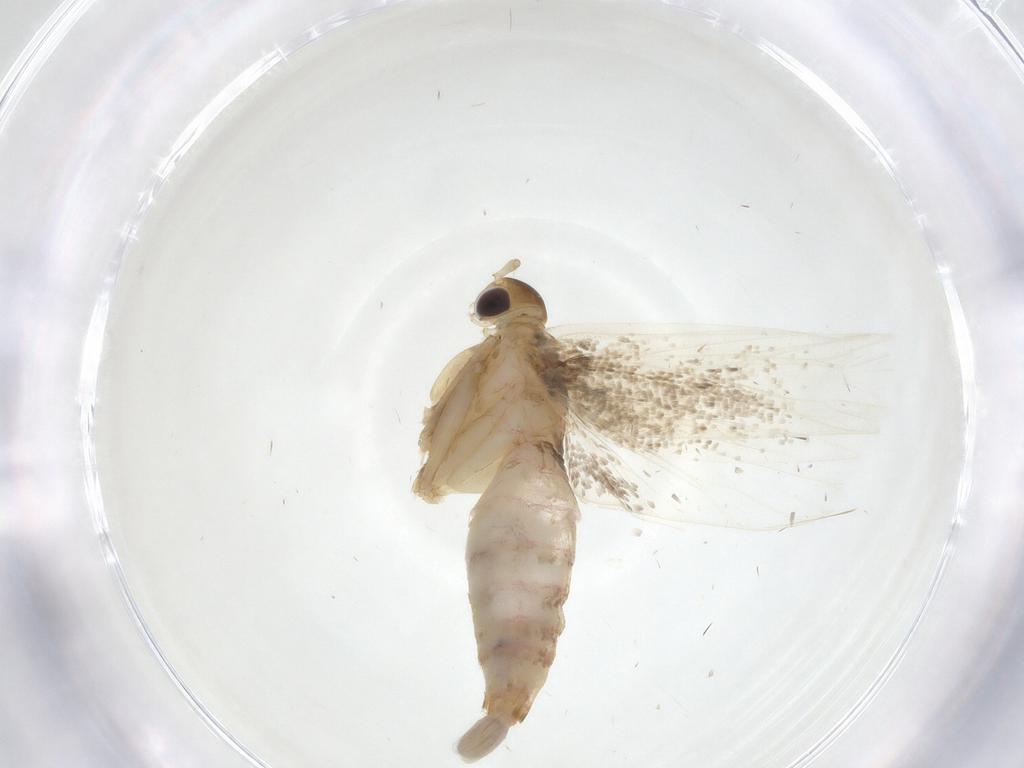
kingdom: Animalia
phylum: Arthropoda
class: Insecta
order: Lepidoptera
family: Lecithoceridae
